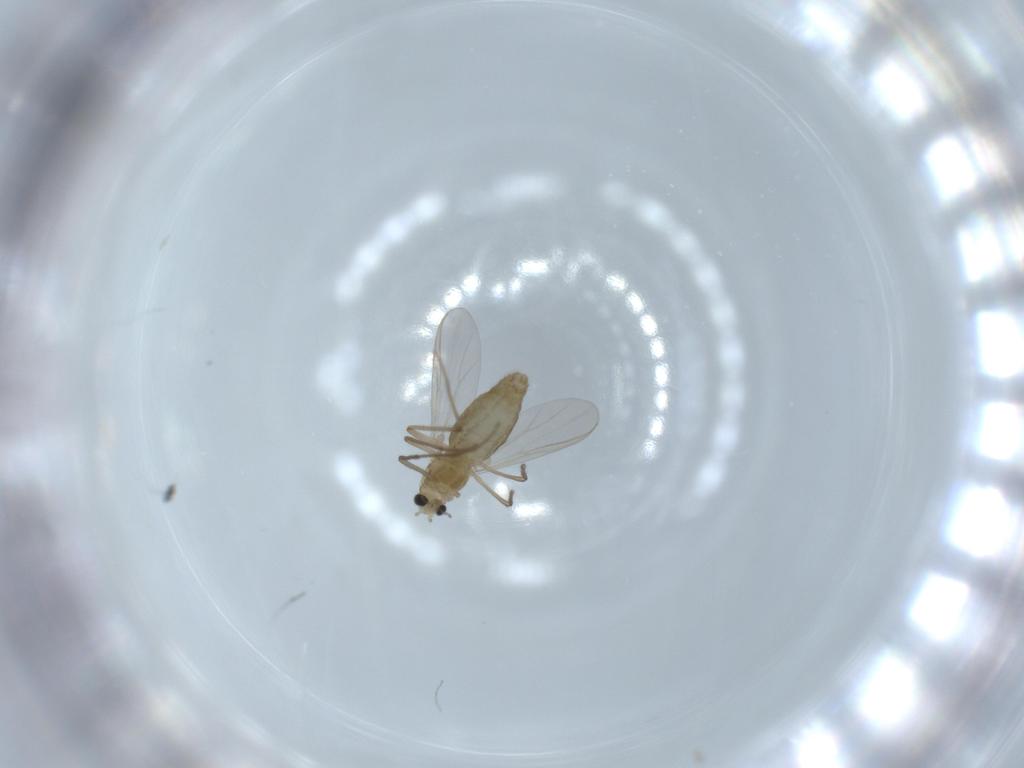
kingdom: Animalia
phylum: Arthropoda
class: Insecta
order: Diptera
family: Chironomidae
